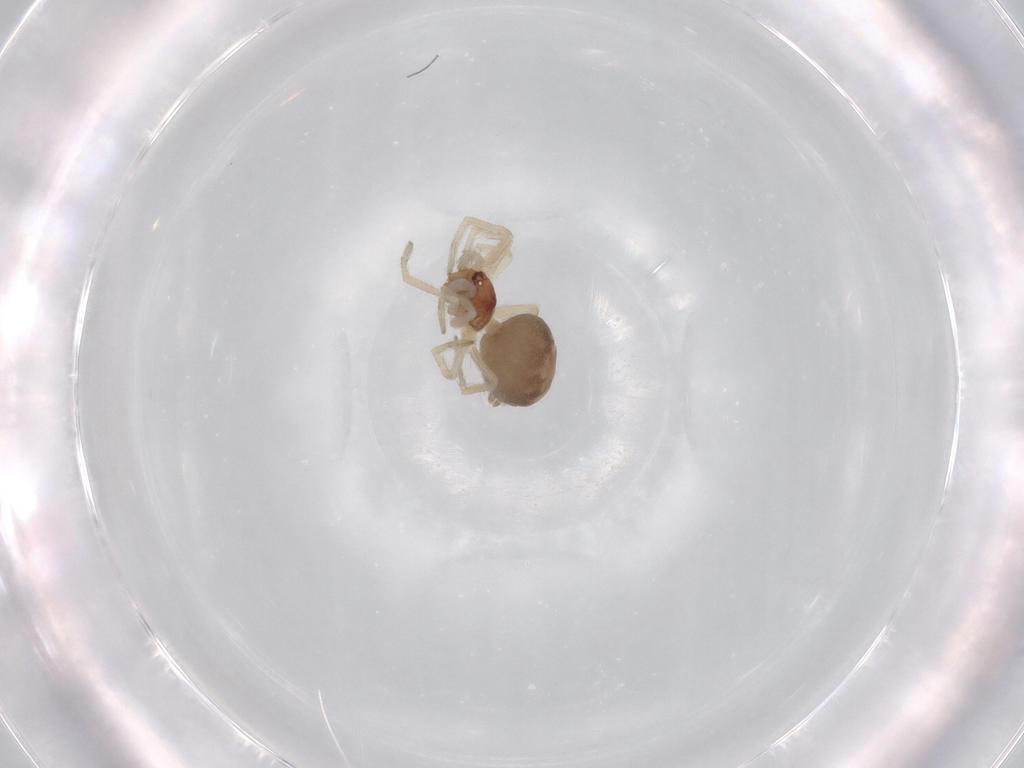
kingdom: Animalia
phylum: Arthropoda
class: Arachnida
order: Araneae
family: Dictynidae
